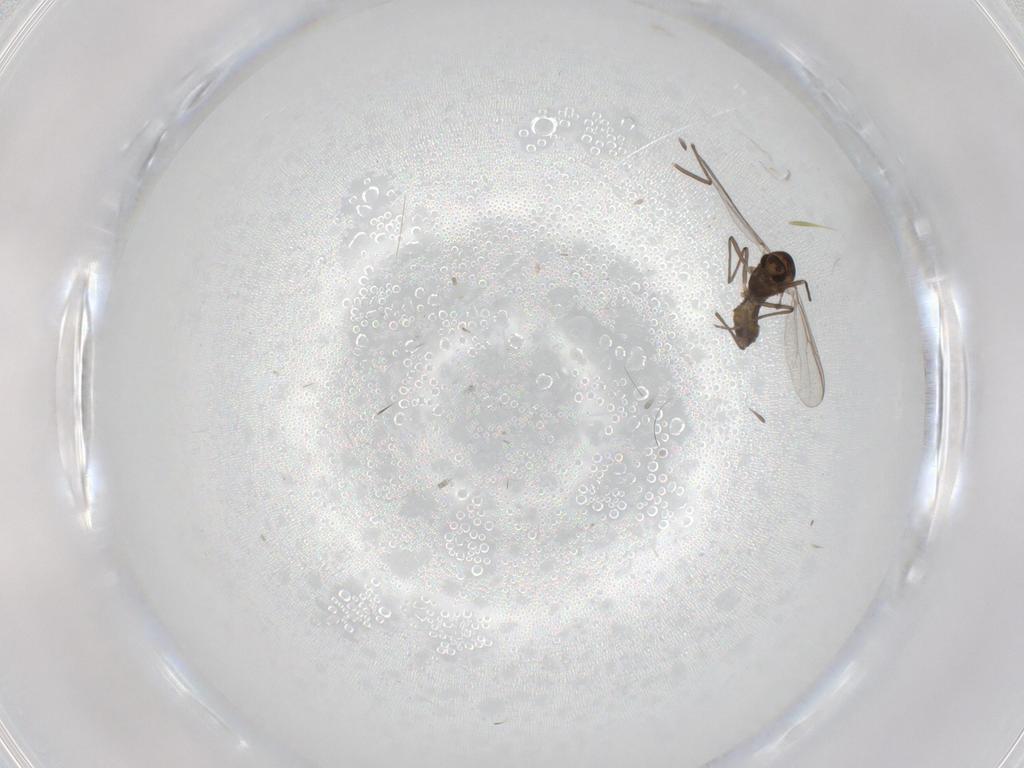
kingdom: Animalia
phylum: Arthropoda
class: Insecta
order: Diptera
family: Chironomidae
